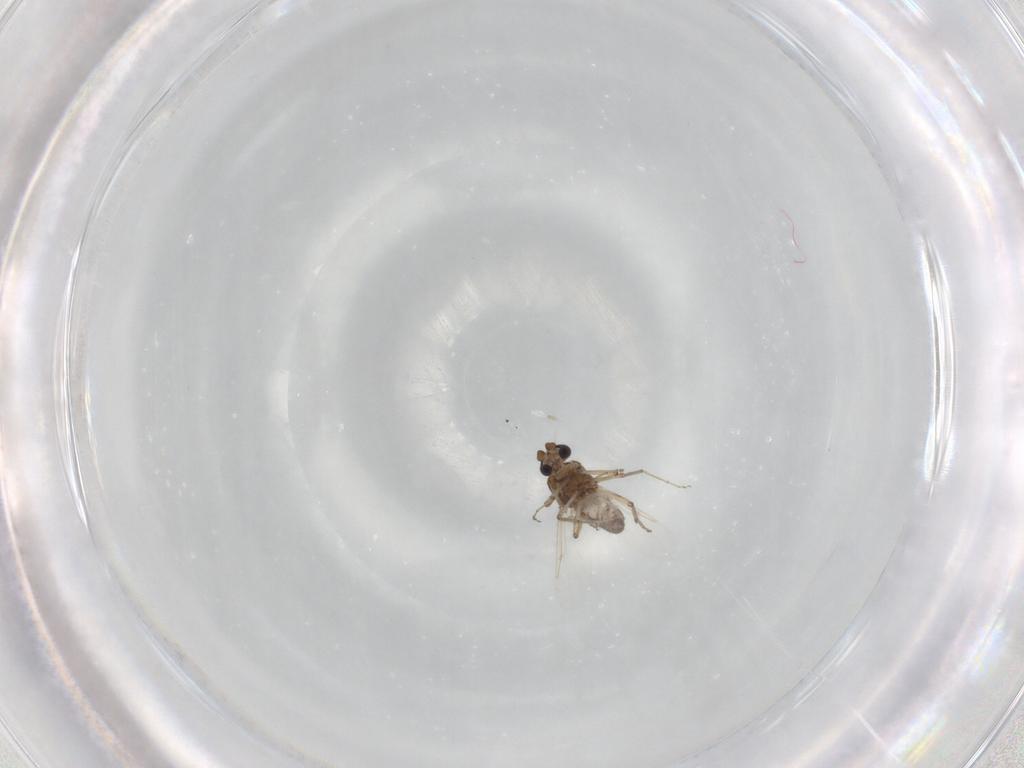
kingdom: Animalia
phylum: Arthropoda
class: Insecta
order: Diptera
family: Ceratopogonidae
